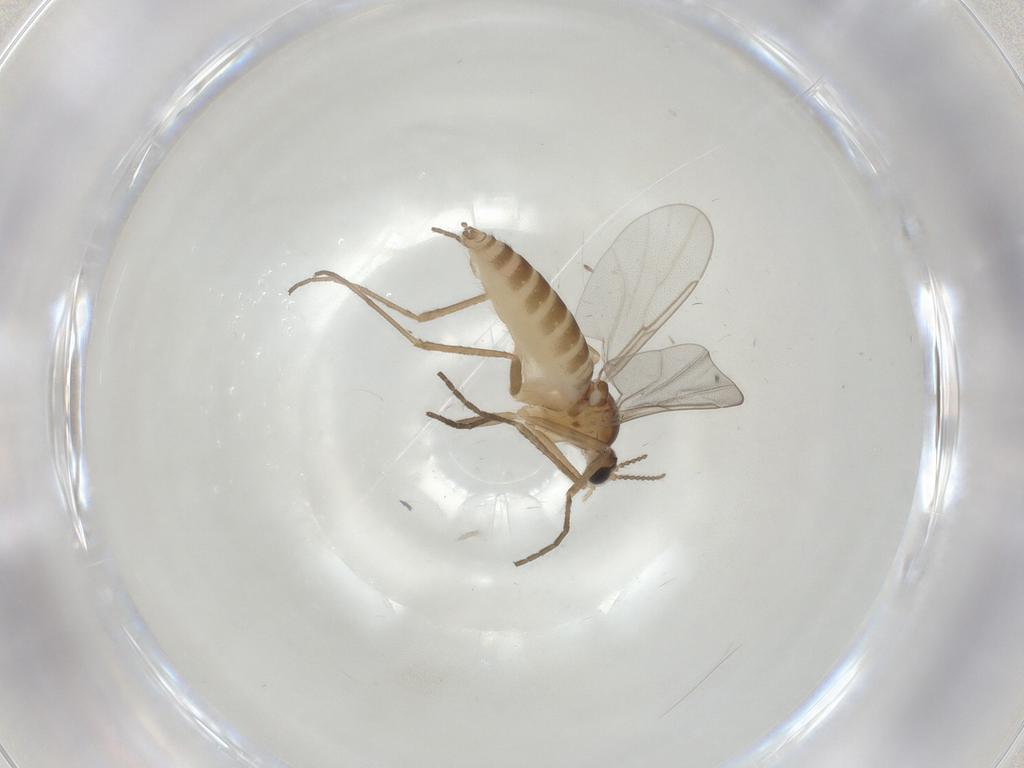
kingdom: Animalia
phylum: Arthropoda
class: Insecta
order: Diptera
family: Cecidomyiidae
